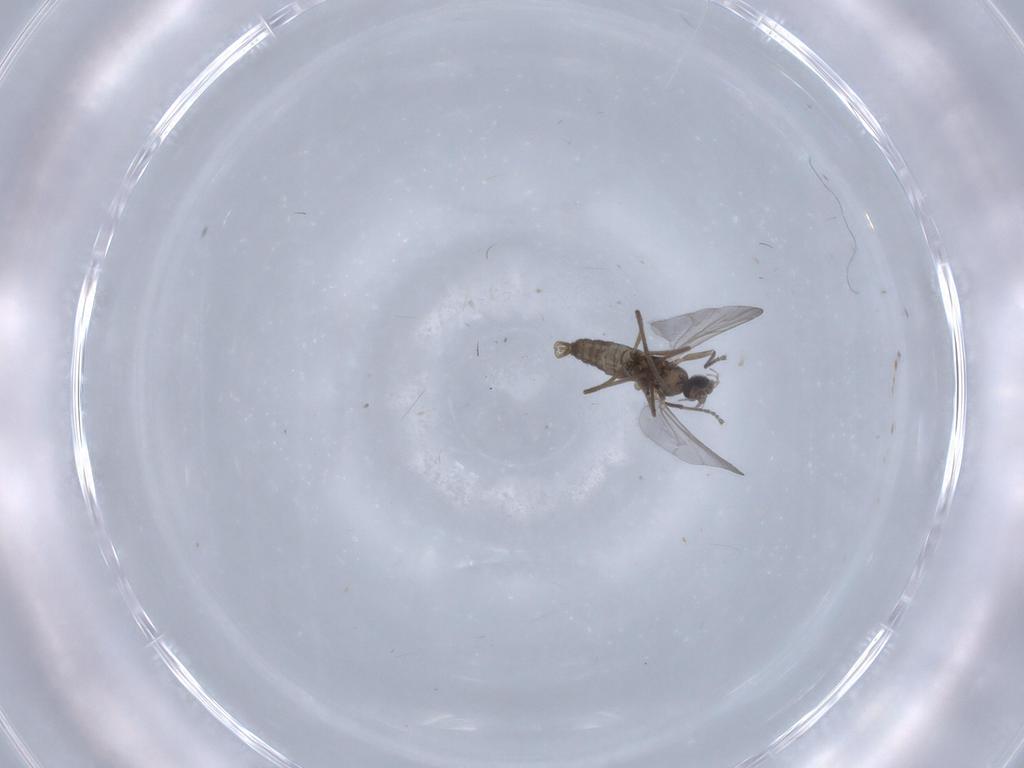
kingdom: Animalia
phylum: Arthropoda
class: Insecta
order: Diptera
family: Cecidomyiidae
